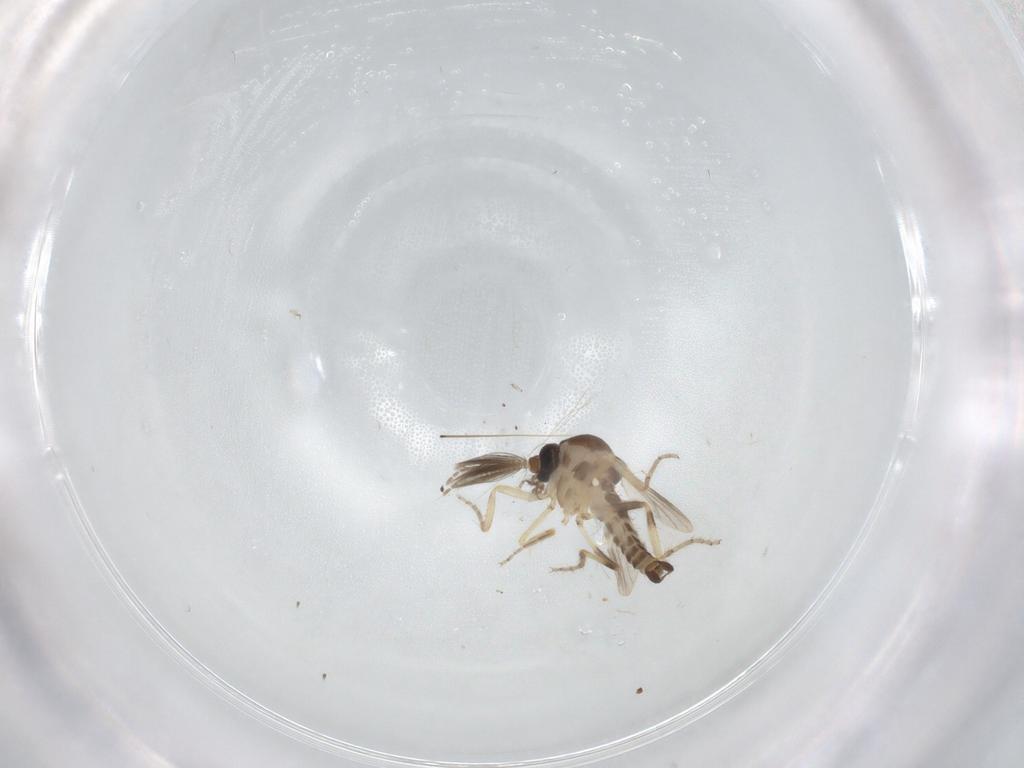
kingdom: Animalia
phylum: Arthropoda
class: Insecta
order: Diptera
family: Ceratopogonidae
